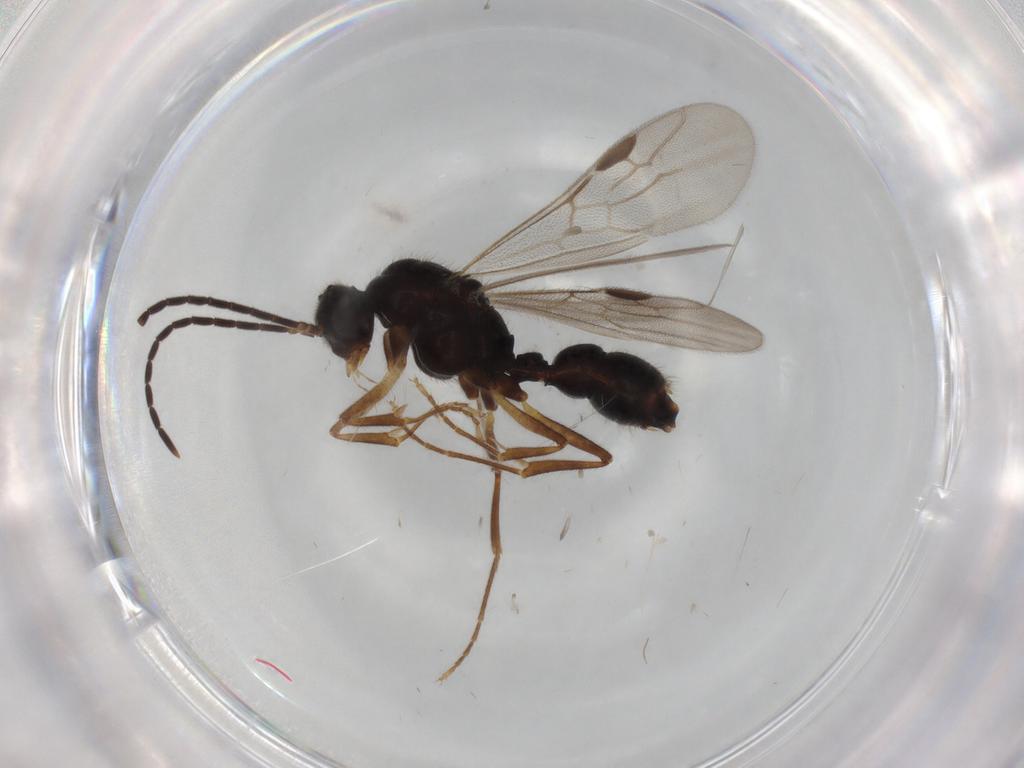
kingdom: Animalia
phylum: Arthropoda
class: Insecta
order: Hymenoptera
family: Formicidae
